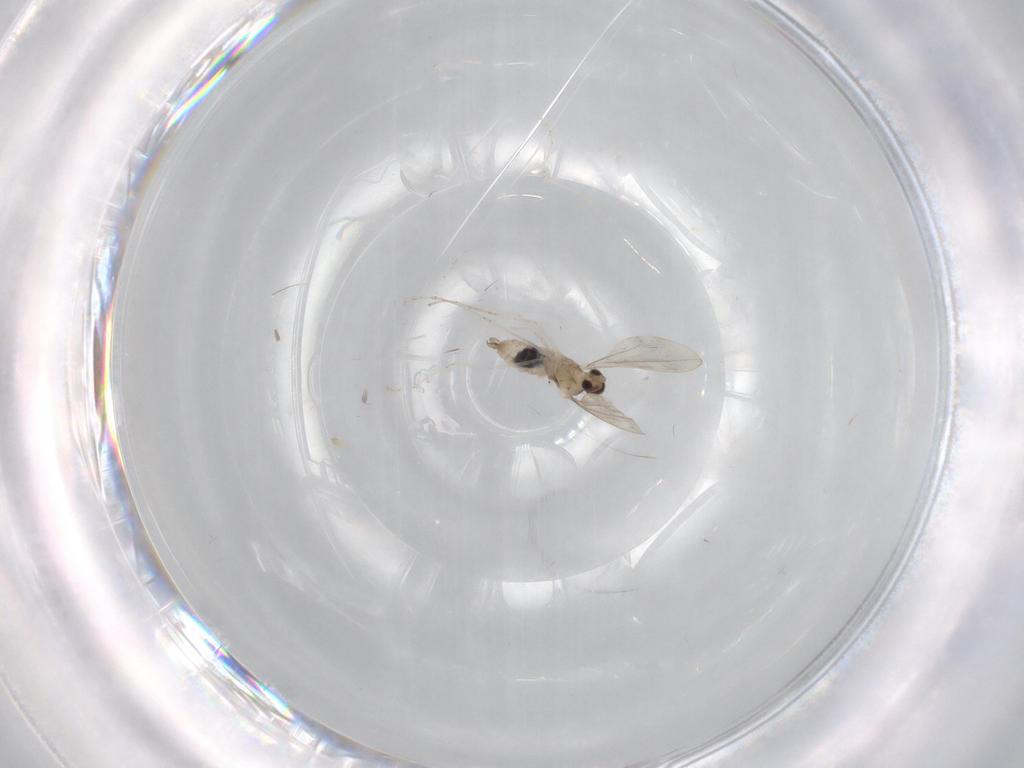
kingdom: Animalia
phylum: Arthropoda
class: Insecta
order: Diptera
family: Cecidomyiidae
